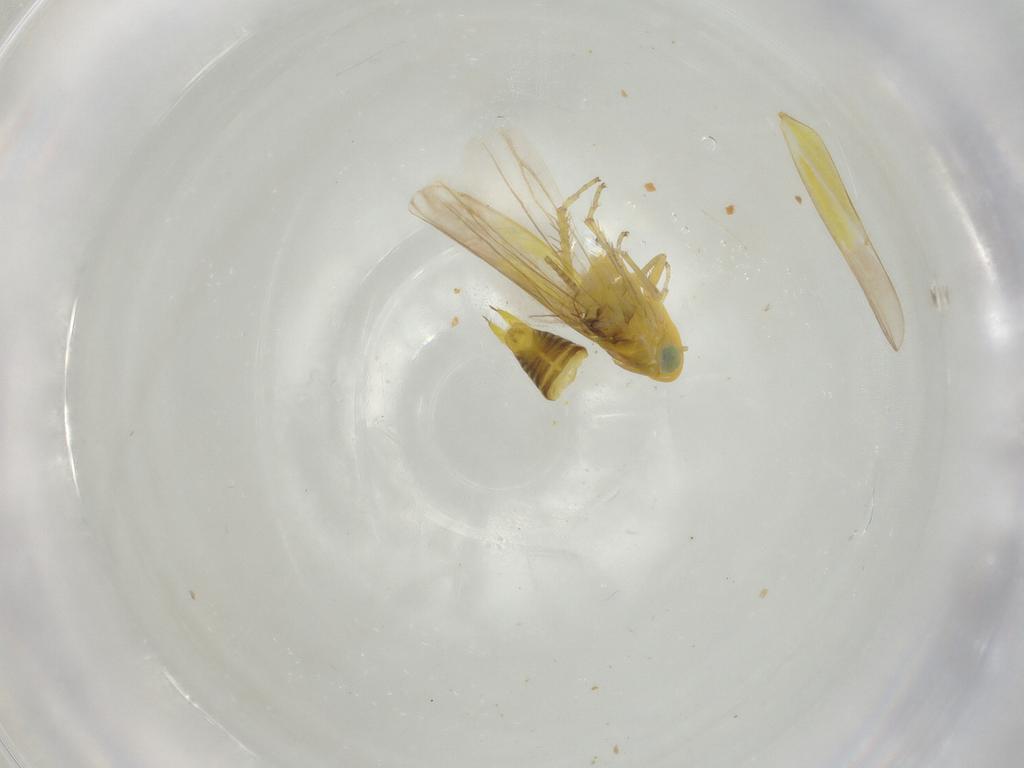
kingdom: Animalia
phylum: Arthropoda
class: Insecta
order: Hemiptera
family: Cicadellidae
